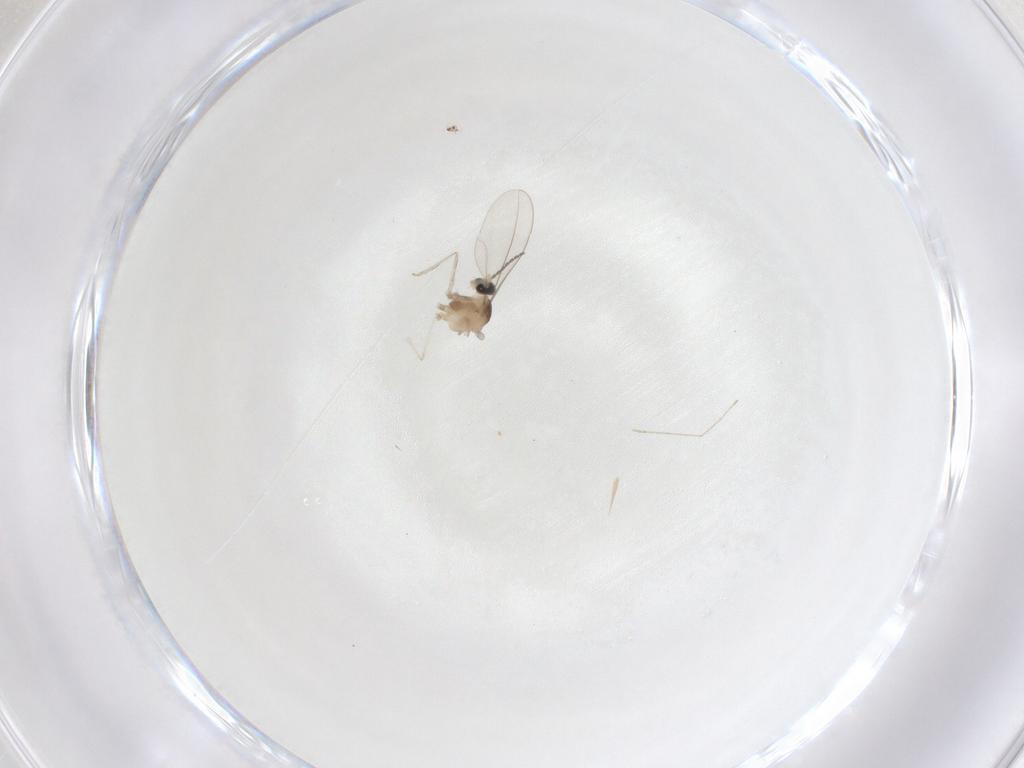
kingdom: Animalia
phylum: Arthropoda
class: Insecta
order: Diptera
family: Cecidomyiidae
